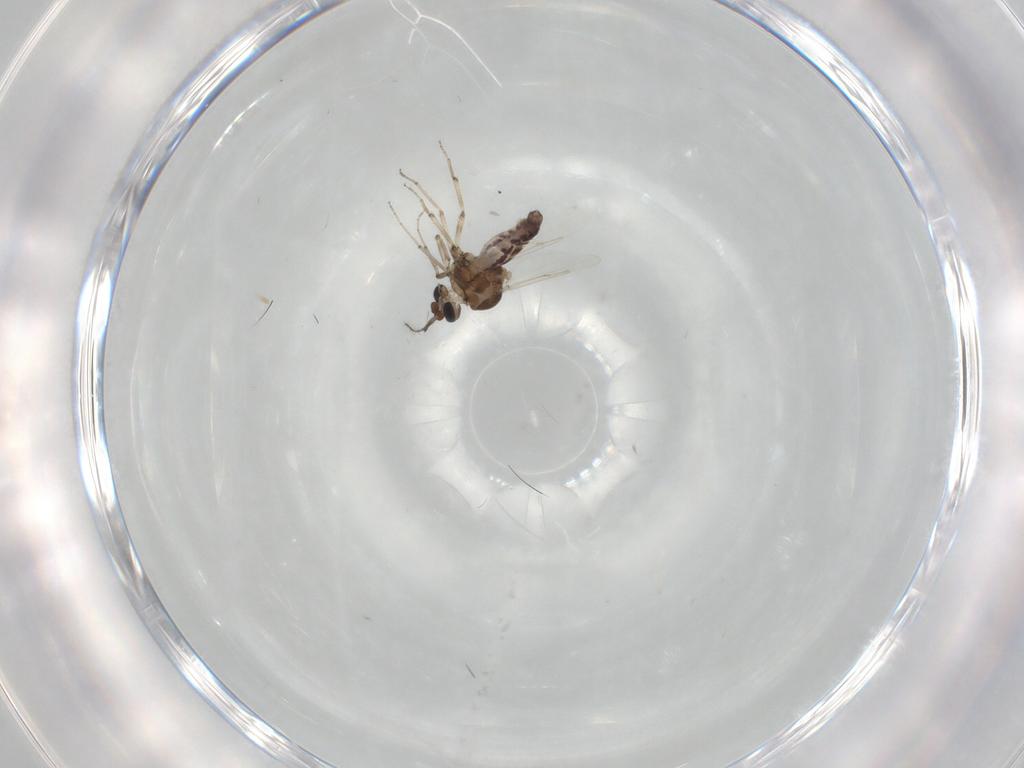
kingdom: Animalia
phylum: Arthropoda
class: Insecta
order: Diptera
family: Ceratopogonidae
